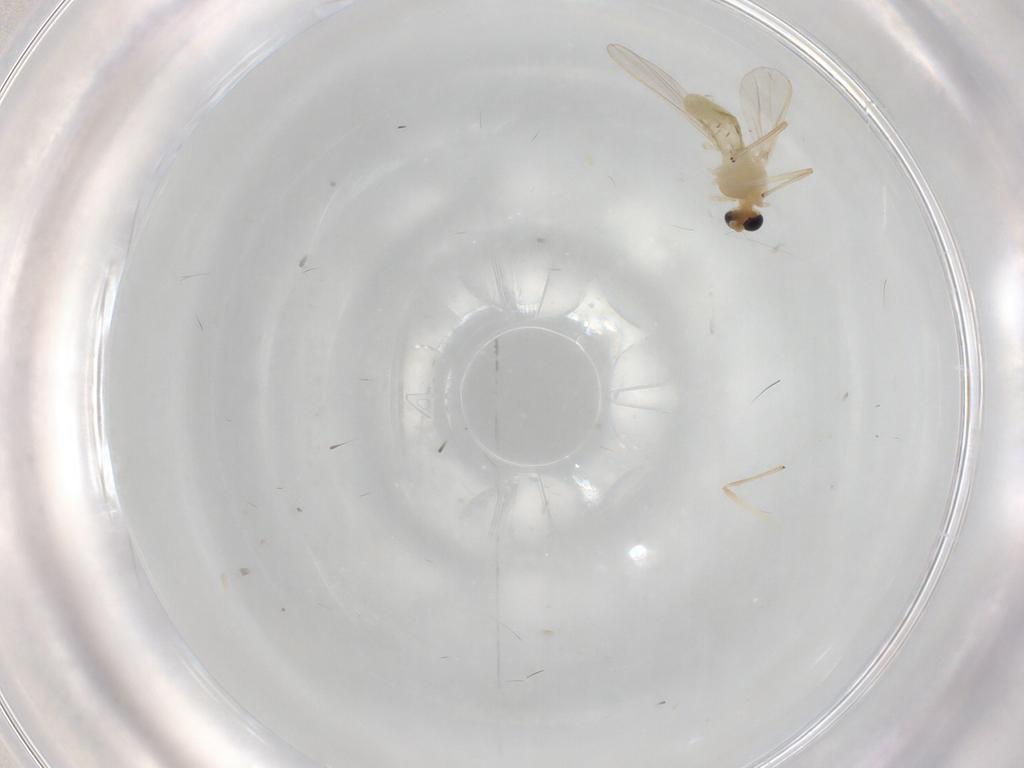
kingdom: Animalia
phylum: Arthropoda
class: Insecta
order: Diptera
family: Chironomidae
